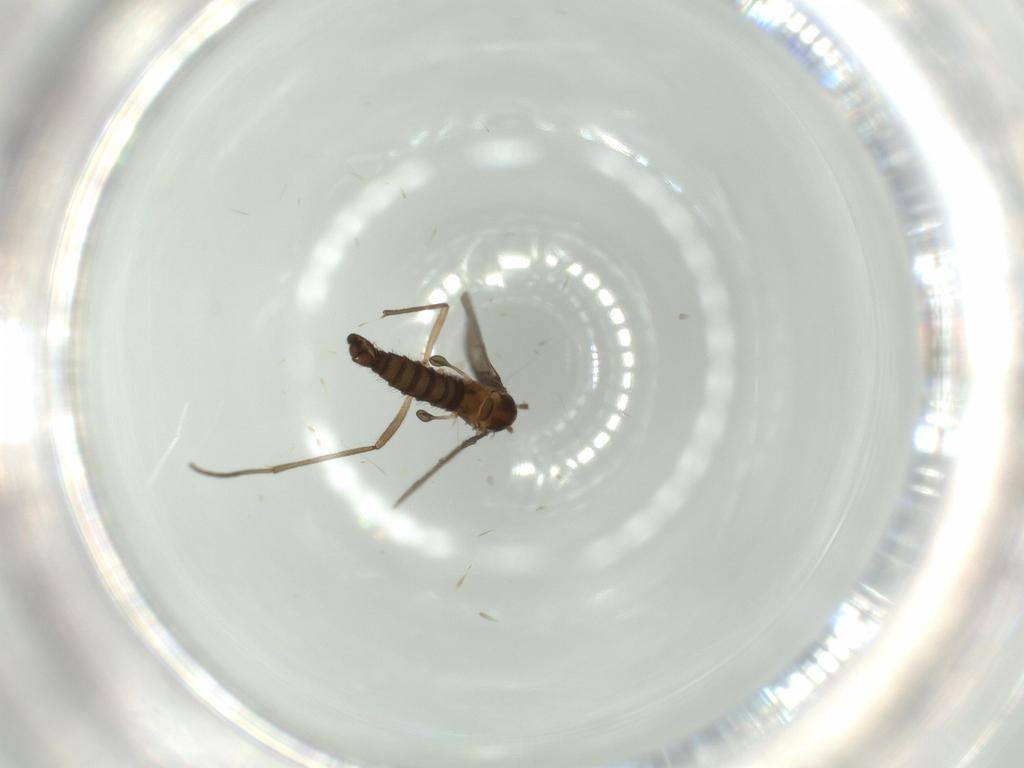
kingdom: Animalia
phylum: Arthropoda
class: Insecta
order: Diptera
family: Sciaridae
